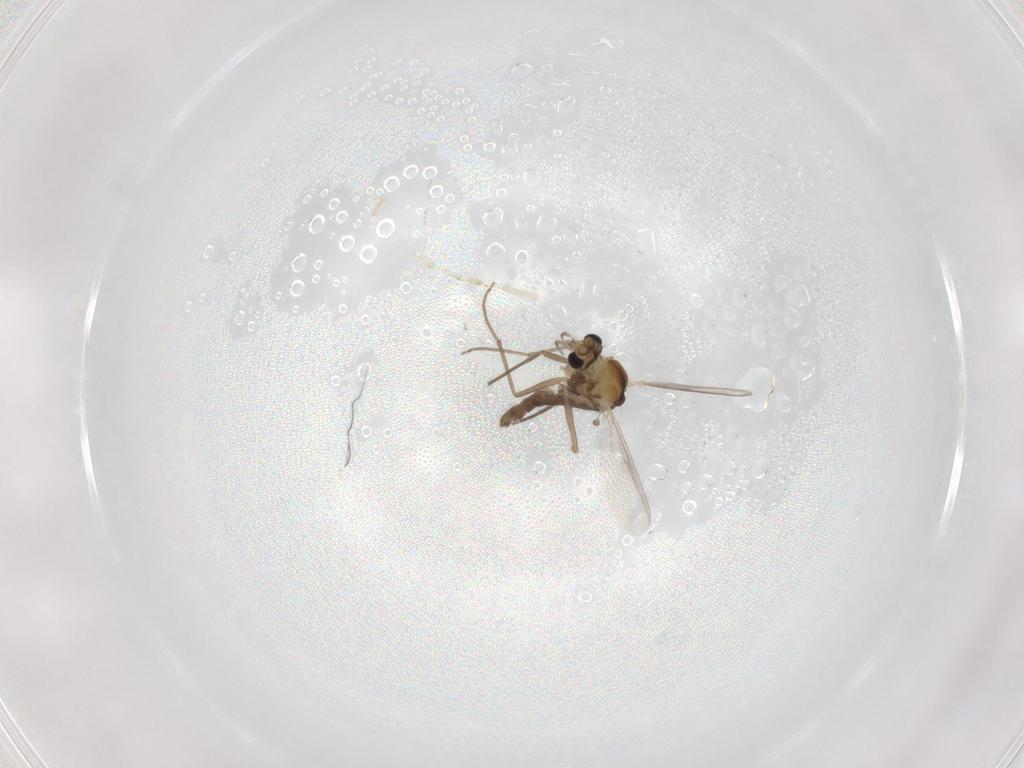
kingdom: Animalia
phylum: Arthropoda
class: Insecta
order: Diptera
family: Chironomidae
